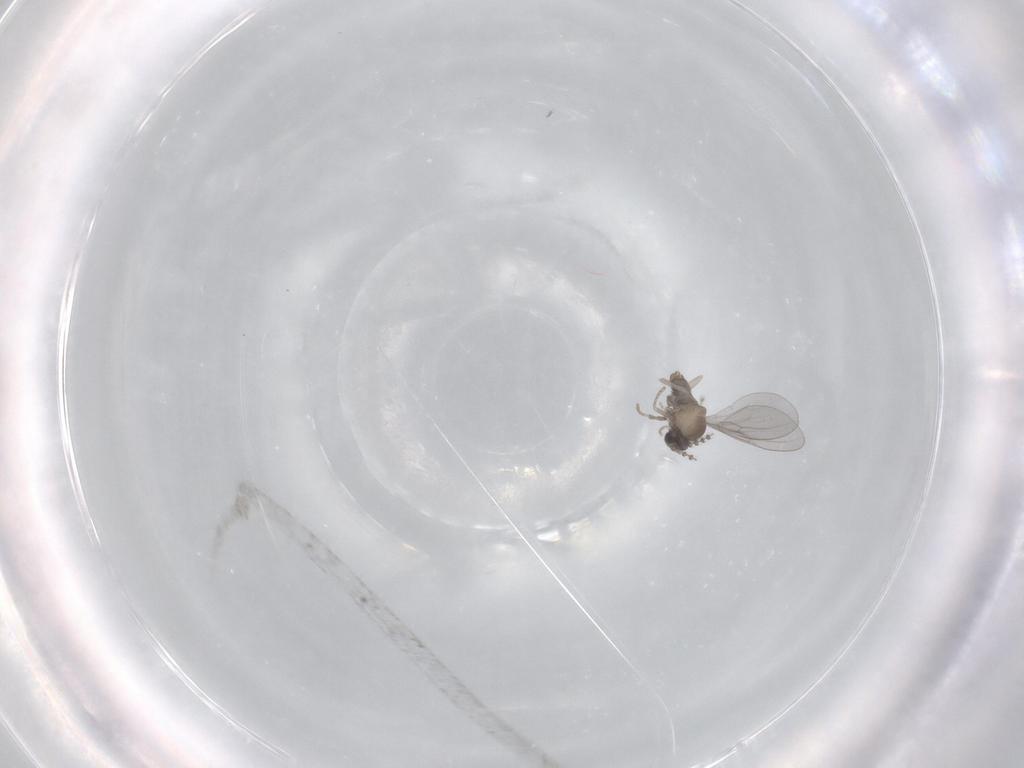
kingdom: Animalia
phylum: Arthropoda
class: Insecta
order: Diptera
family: Cecidomyiidae
